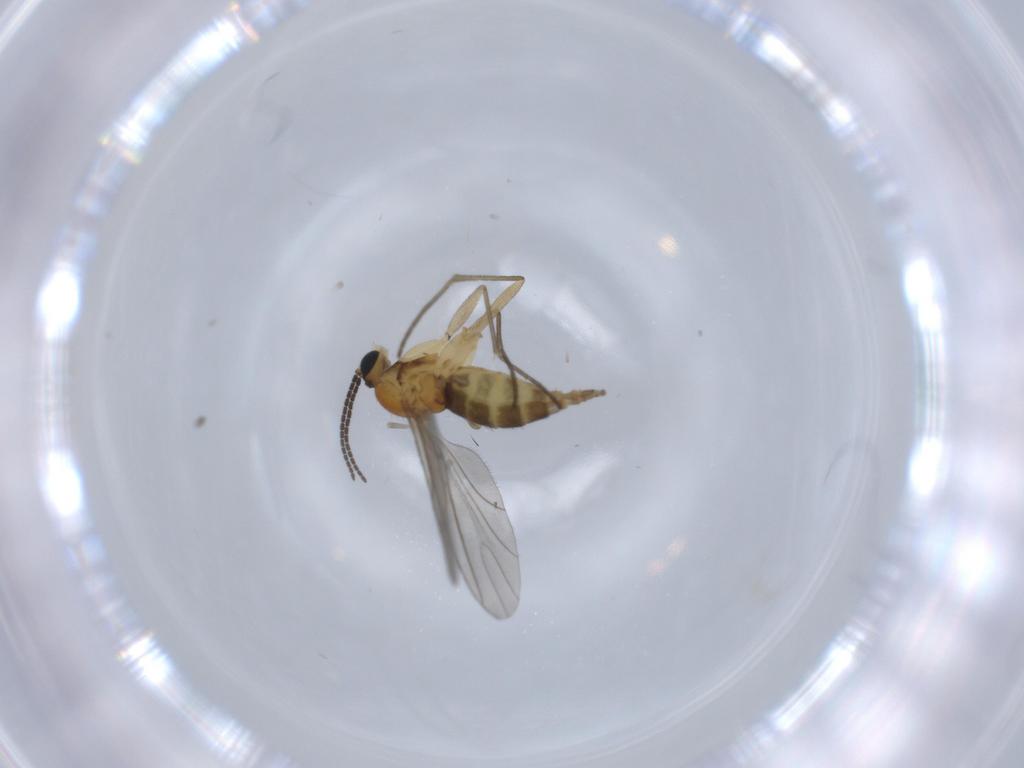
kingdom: Animalia
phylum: Arthropoda
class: Insecta
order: Diptera
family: Sciaridae
